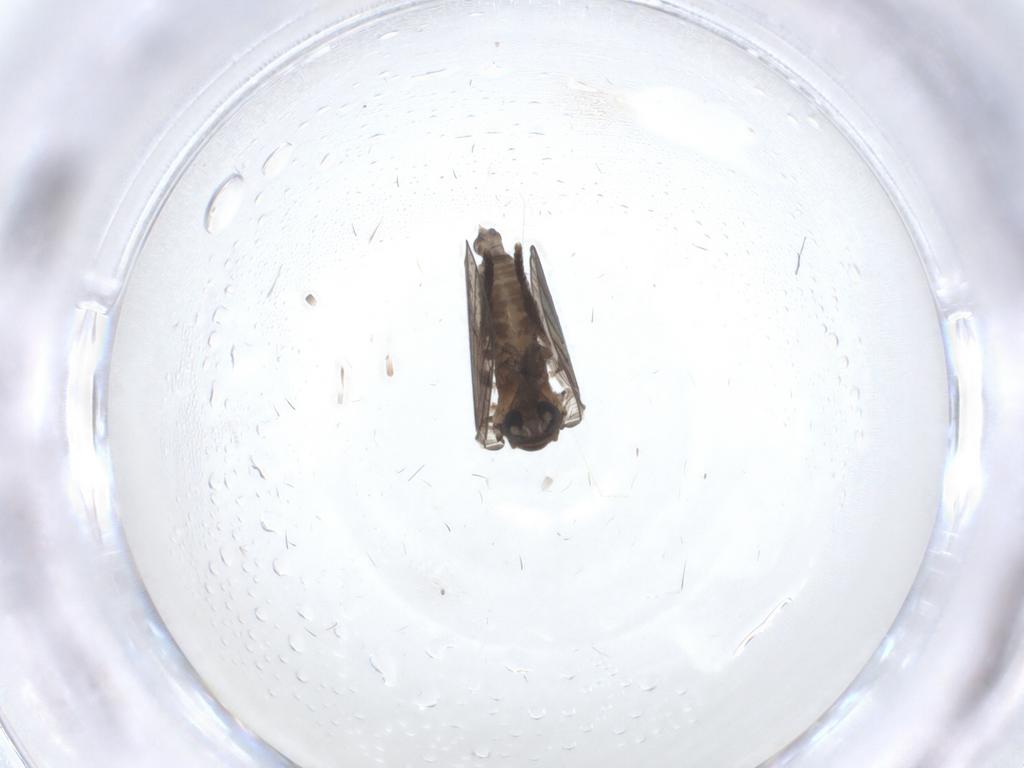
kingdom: Animalia
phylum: Arthropoda
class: Insecta
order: Diptera
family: Psychodidae
